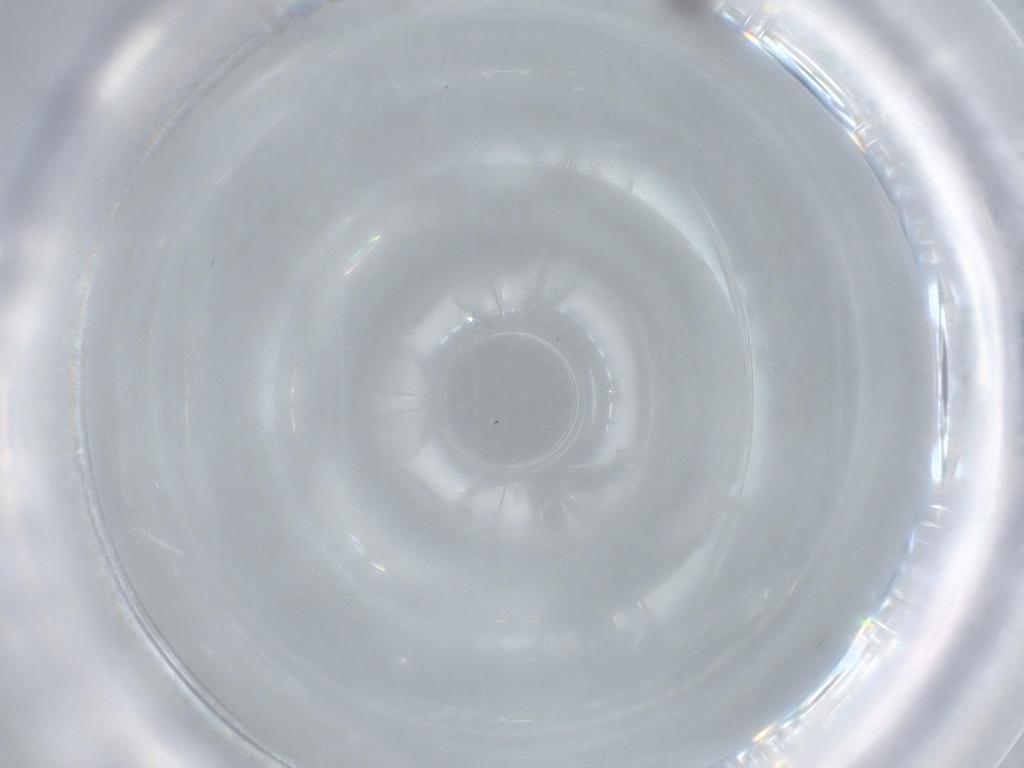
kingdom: Animalia
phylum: Arthropoda
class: Insecta
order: Hymenoptera
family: Mymaridae
